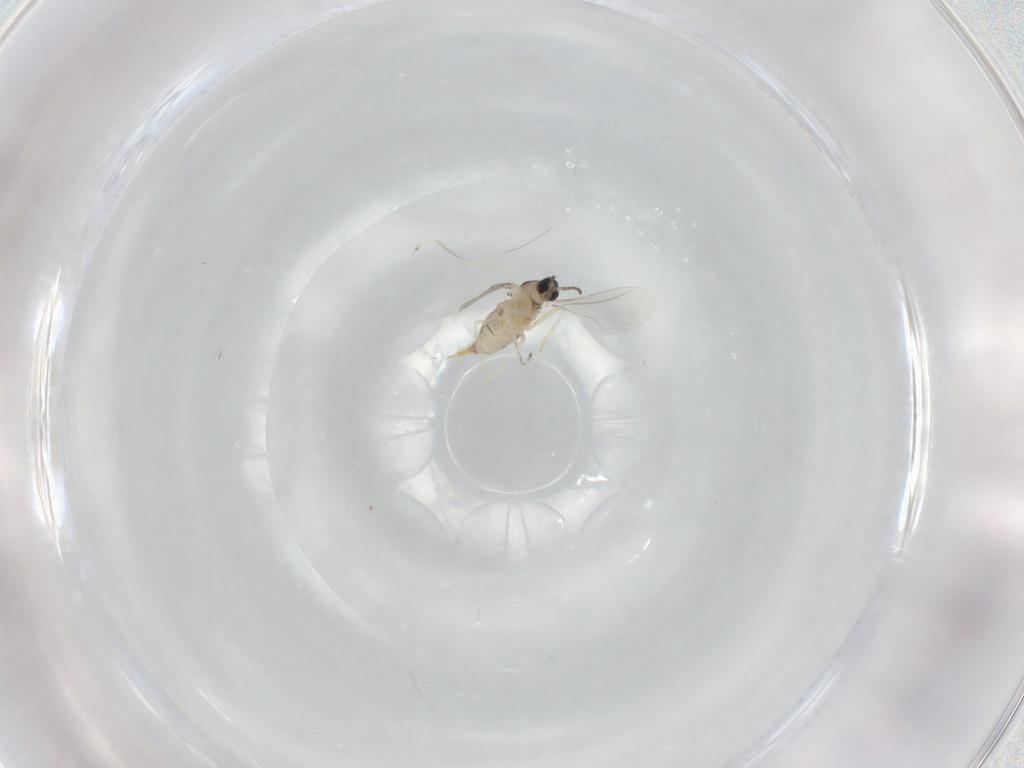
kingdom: Animalia
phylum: Arthropoda
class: Insecta
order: Diptera
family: Cecidomyiidae
